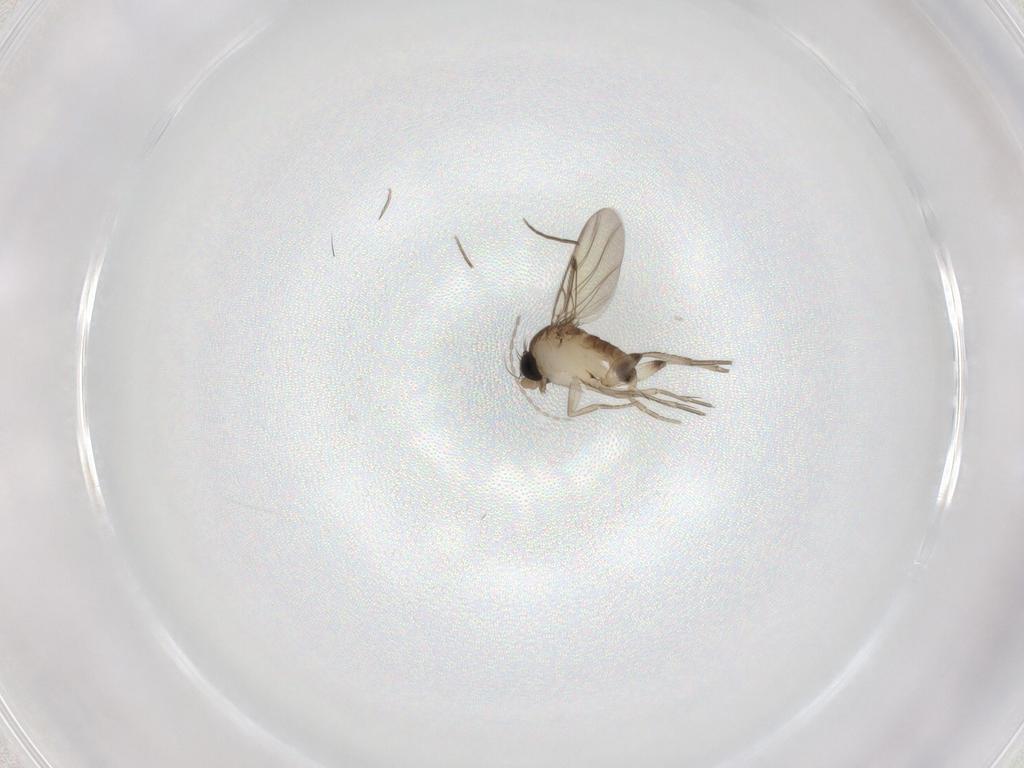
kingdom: Animalia
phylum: Arthropoda
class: Insecta
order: Diptera
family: Phoridae
